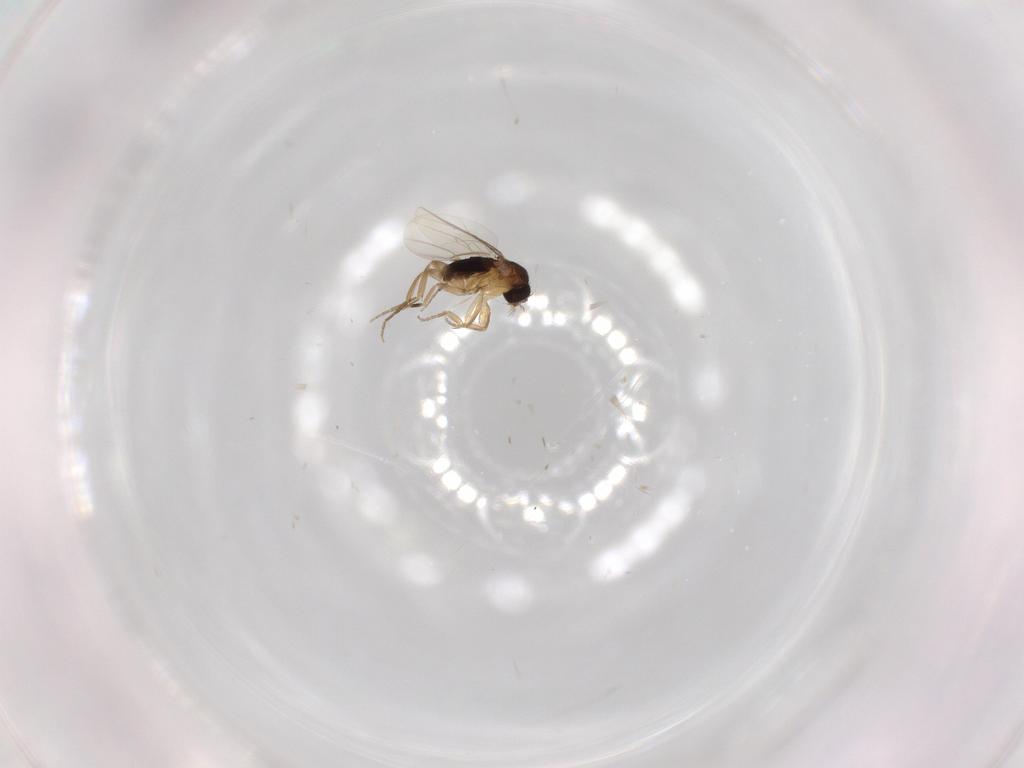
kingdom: Animalia
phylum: Arthropoda
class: Insecta
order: Diptera
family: Phoridae
